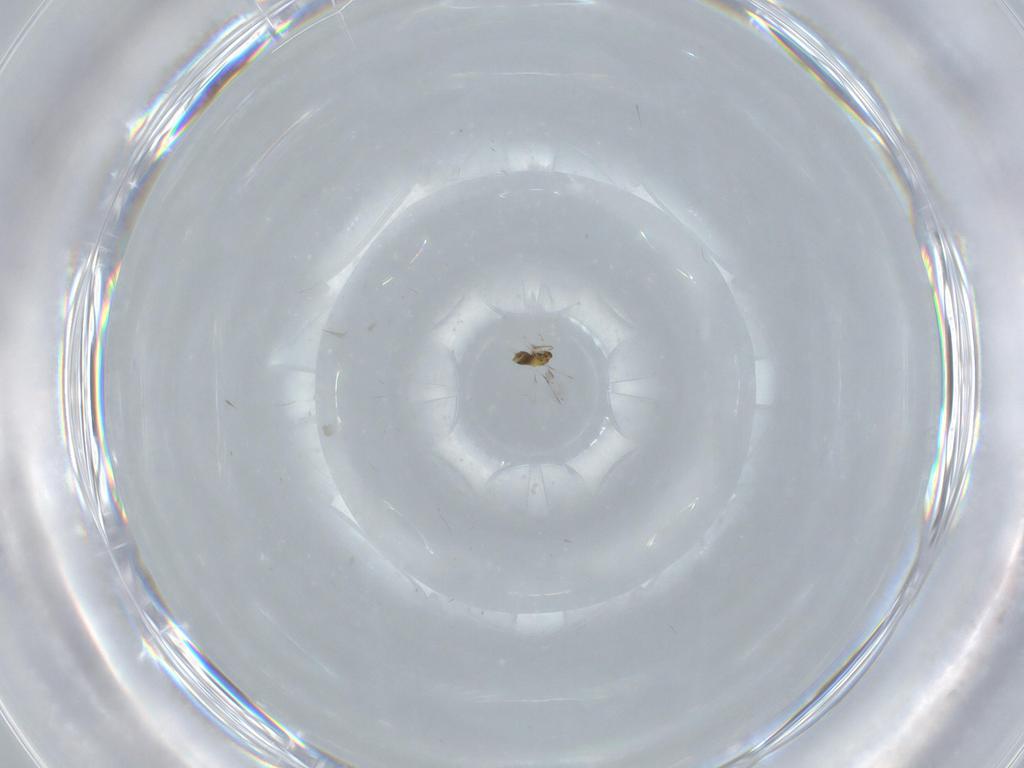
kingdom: Animalia
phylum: Arthropoda
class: Insecta
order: Hymenoptera
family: Aphelinidae
